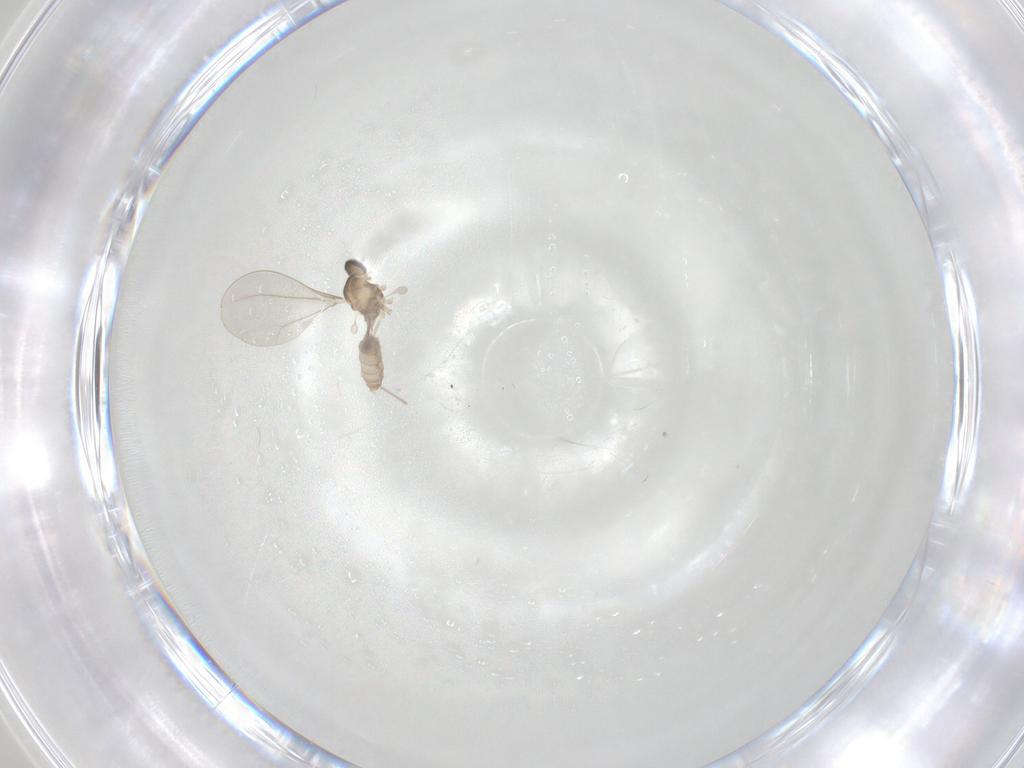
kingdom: Animalia
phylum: Arthropoda
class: Insecta
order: Diptera
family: Cecidomyiidae
